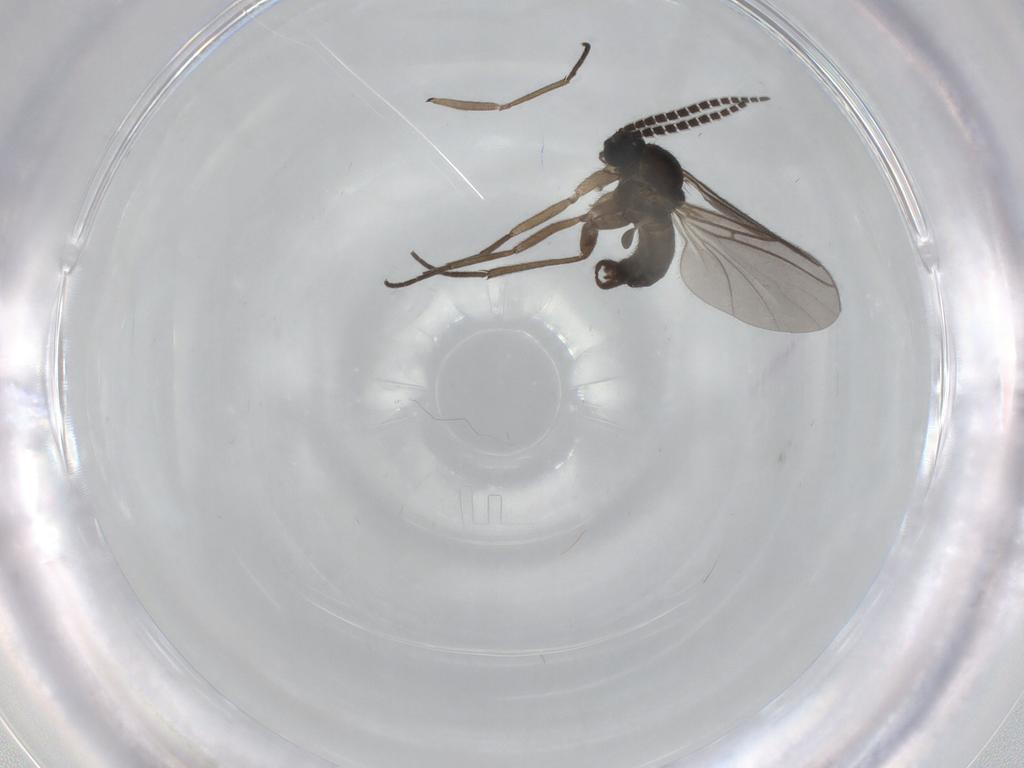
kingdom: Animalia
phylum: Arthropoda
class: Insecta
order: Diptera
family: Sciaridae
